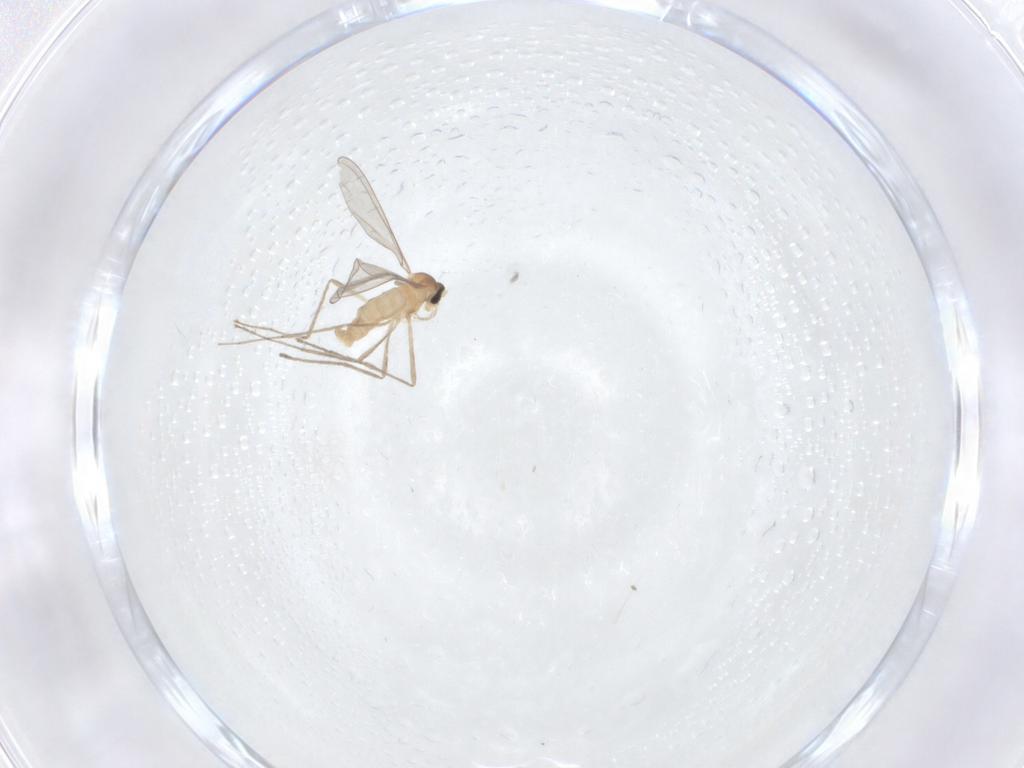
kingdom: Animalia
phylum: Arthropoda
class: Insecta
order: Diptera
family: Cecidomyiidae
